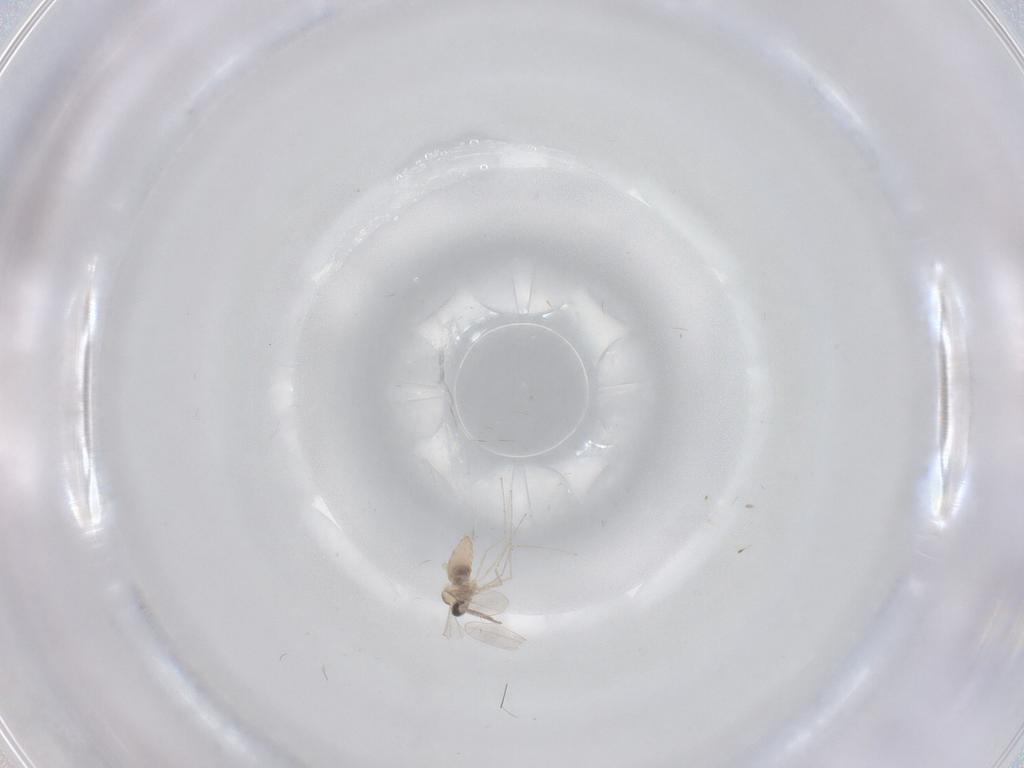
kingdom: Animalia
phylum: Arthropoda
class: Insecta
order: Diptera
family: Cecidomyiidae
